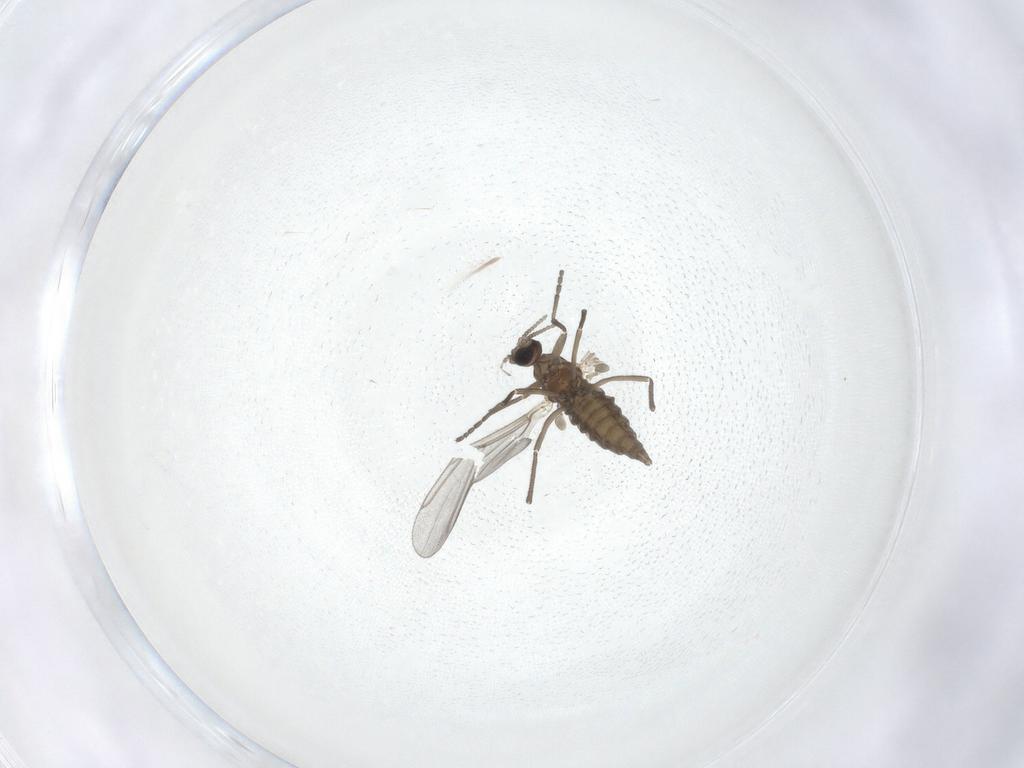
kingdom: Animalia
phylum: Arthropoda
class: Insecta
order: Diptera
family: Cecidomyiidae
